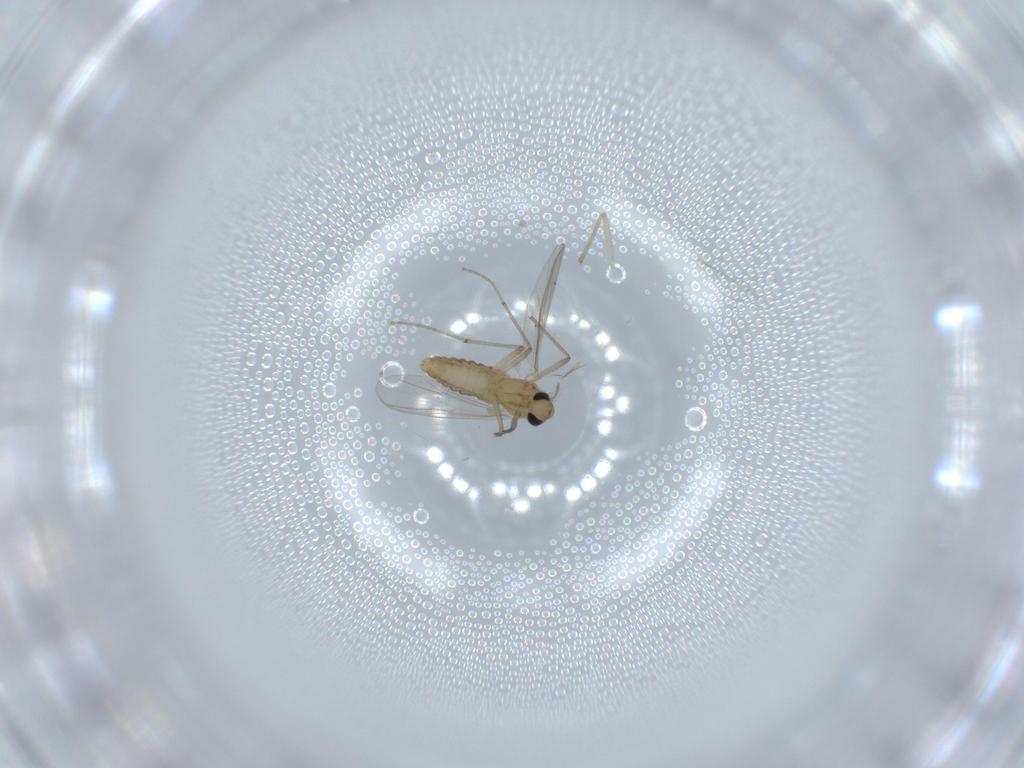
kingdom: Animalia
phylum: Arthropoda
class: Insecta
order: Diptera
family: Chironomidae
